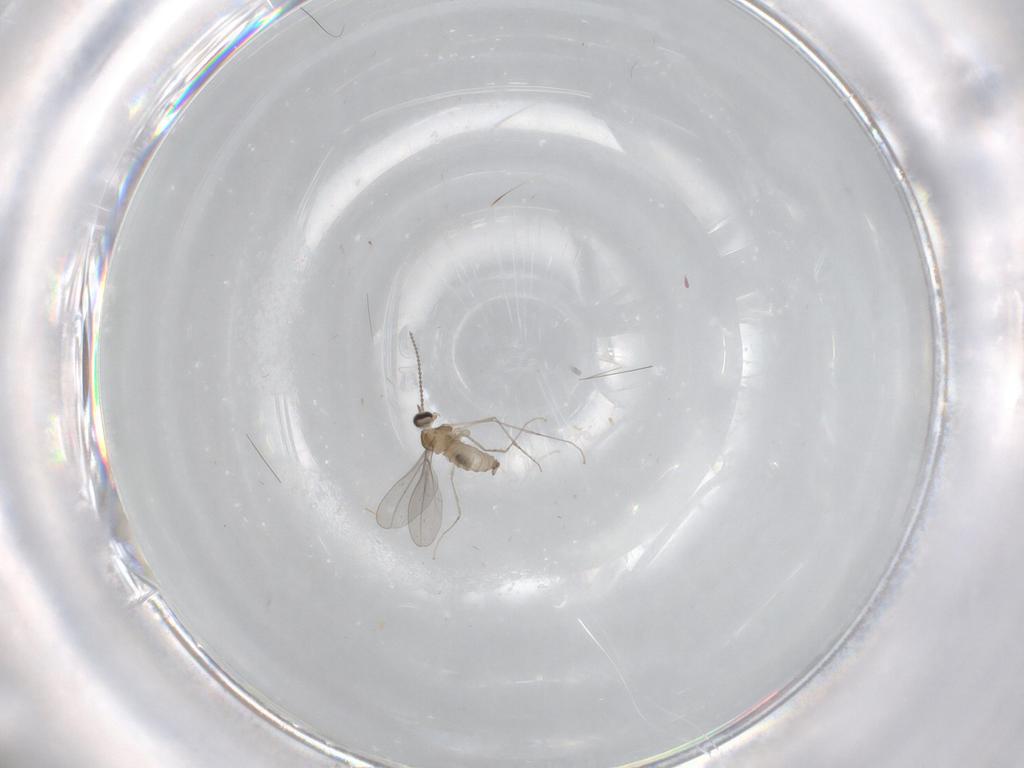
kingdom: Animalia
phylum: Arthropoda
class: Insecta
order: Diptera
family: Cecidomyiidae
